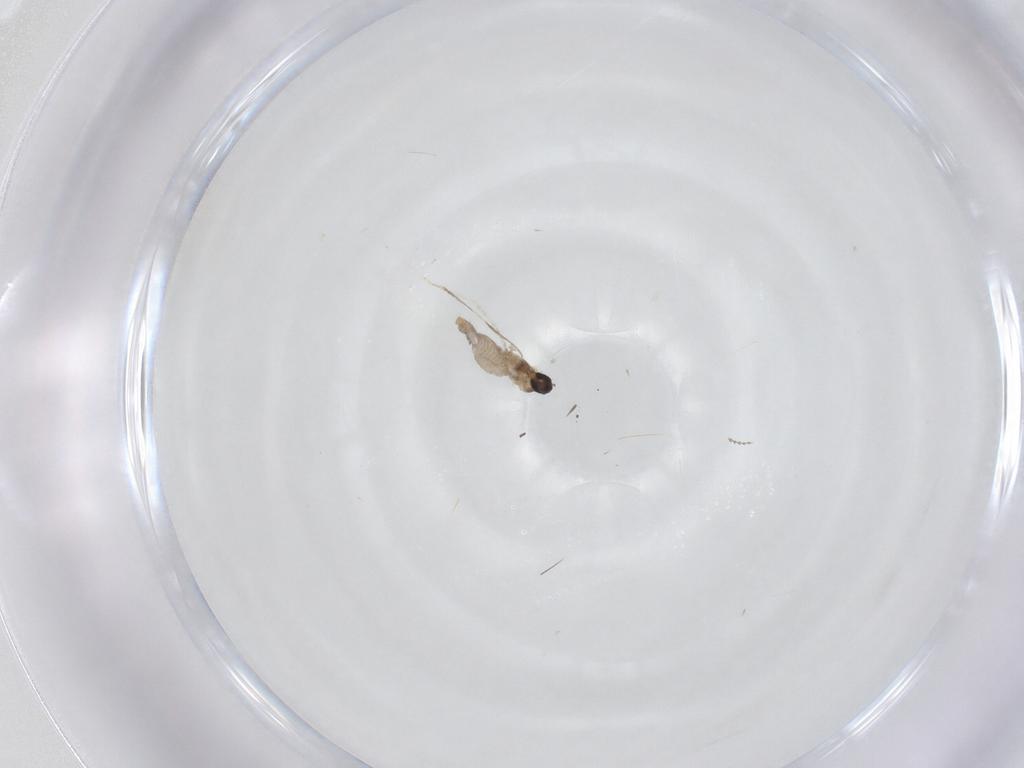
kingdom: Animalia
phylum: Arthropoda
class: Insecta
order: Diptera
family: Cecidomyiidae
